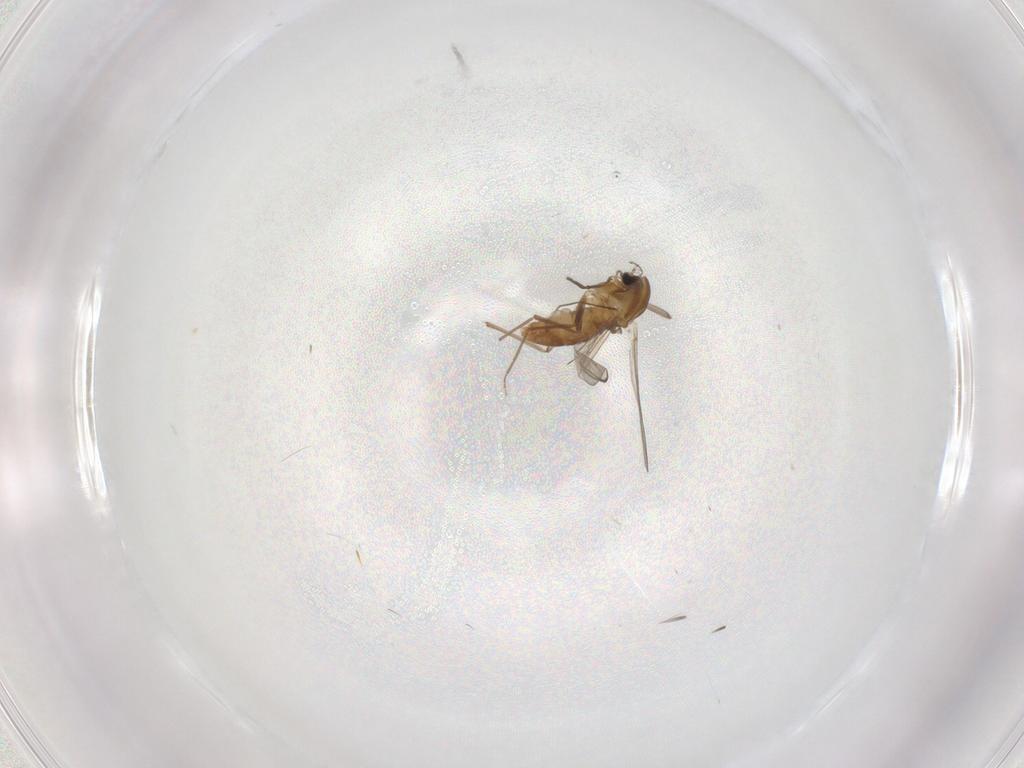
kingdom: Animalia
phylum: Arthropoda
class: Insecta
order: Diptera
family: Chironomidae
